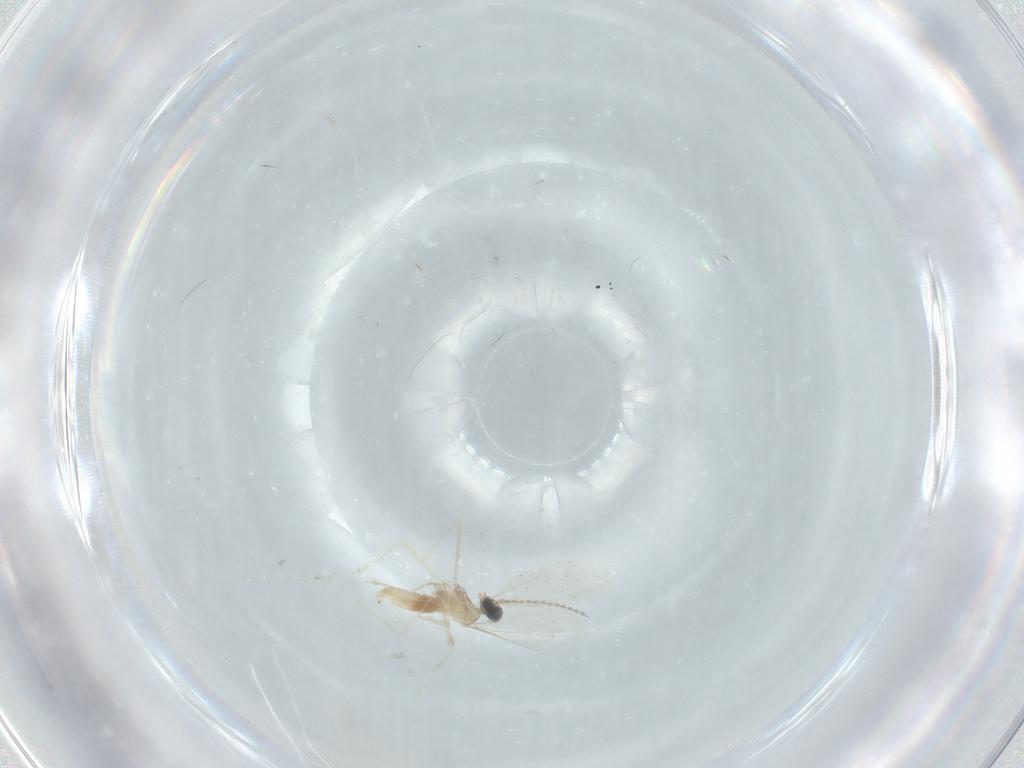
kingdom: Animalia
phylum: Arthropoda
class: Insecta
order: Diptera
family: Cecidomyiidae
